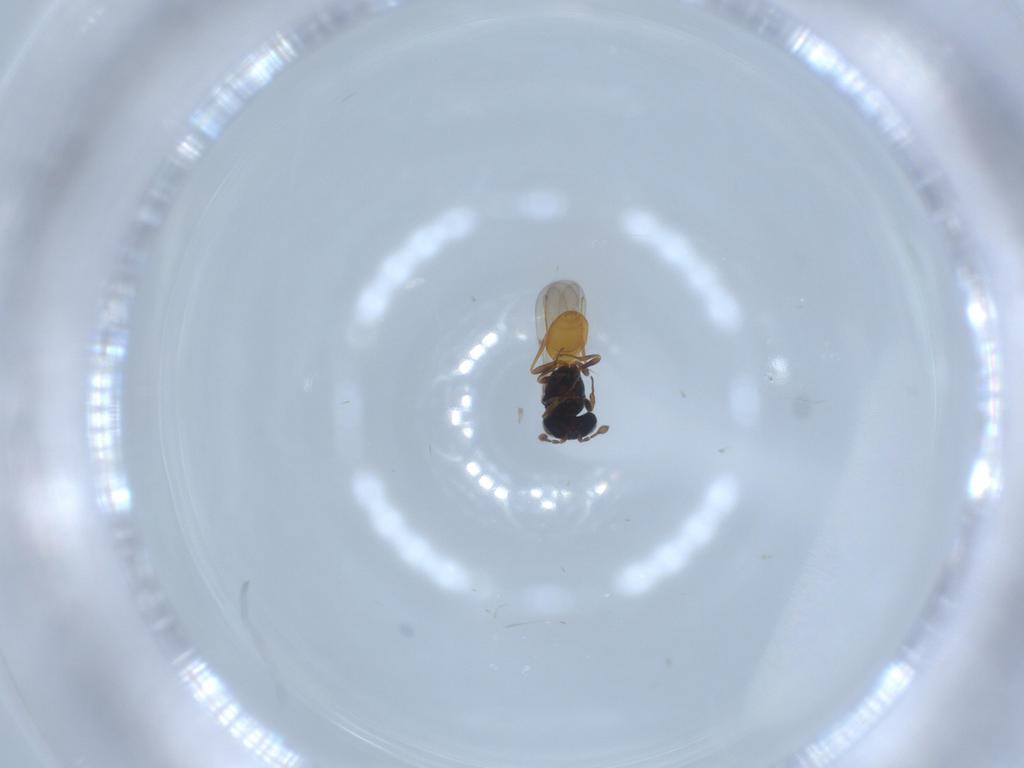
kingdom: Animalia
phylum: Arthropoda
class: Insecta
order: Hymenoptera
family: Scelionidae
